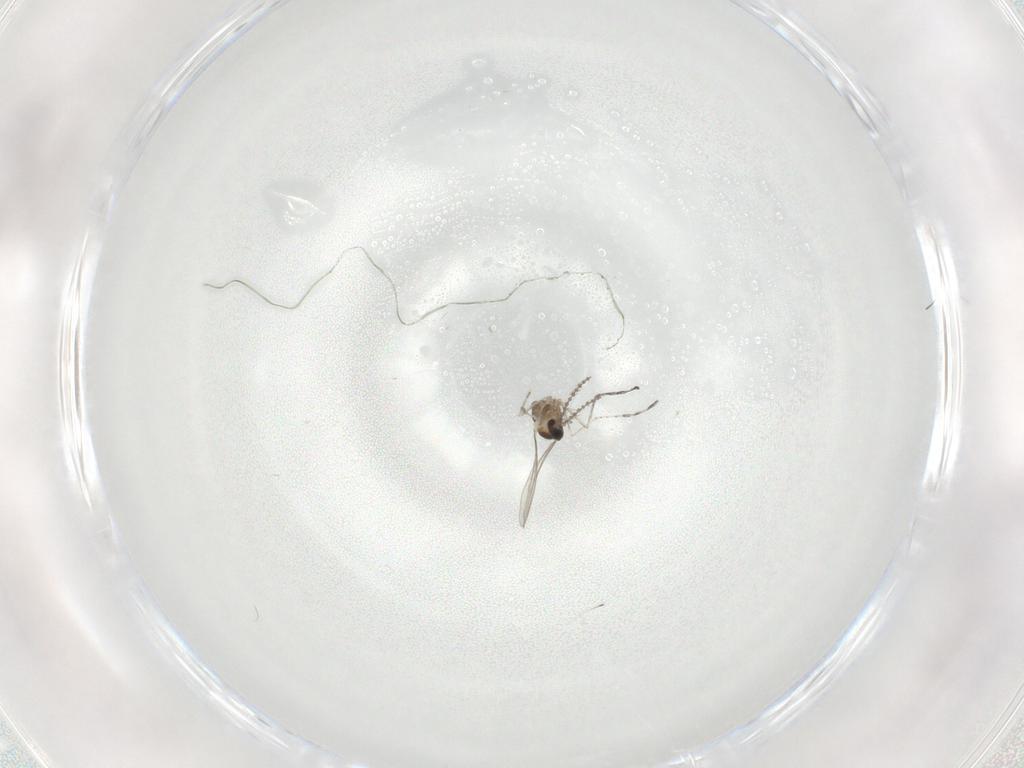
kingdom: Animalia
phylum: Arthropoda
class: Insecta
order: Diptera
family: Cecidomyiidae
